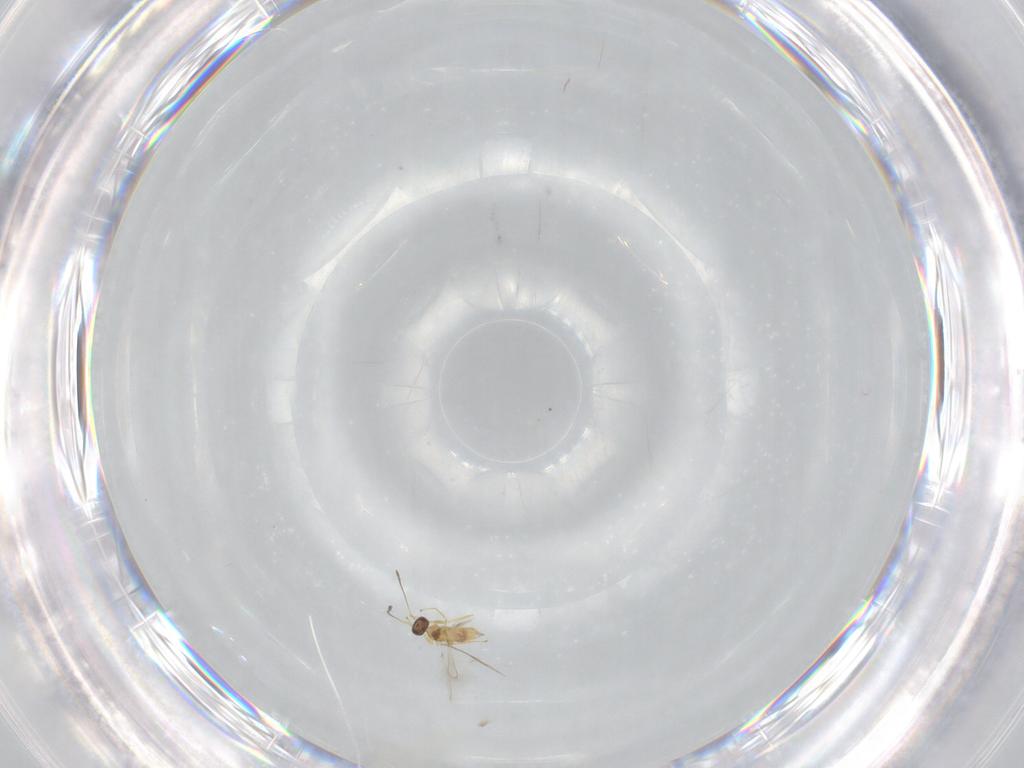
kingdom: Animalia
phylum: Arthropoda
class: Insecta
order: Hymenoptera
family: Mymaridae
